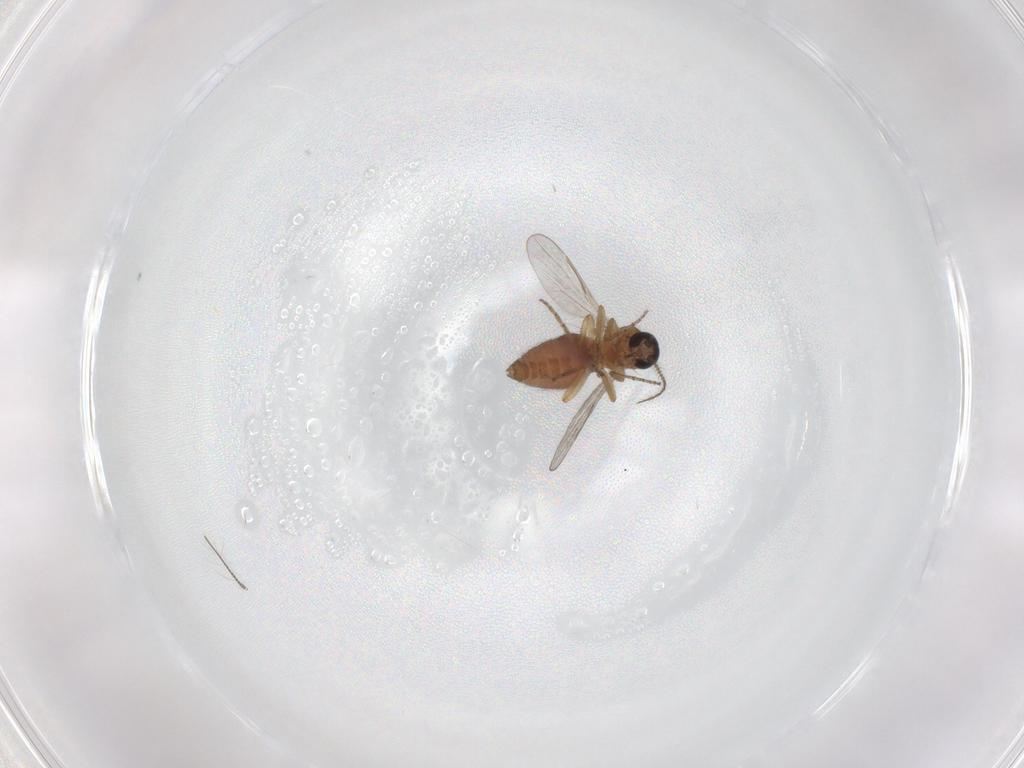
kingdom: Animalia
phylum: Arthropoda
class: Insecta
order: Diptera
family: Ceratopogonidae
